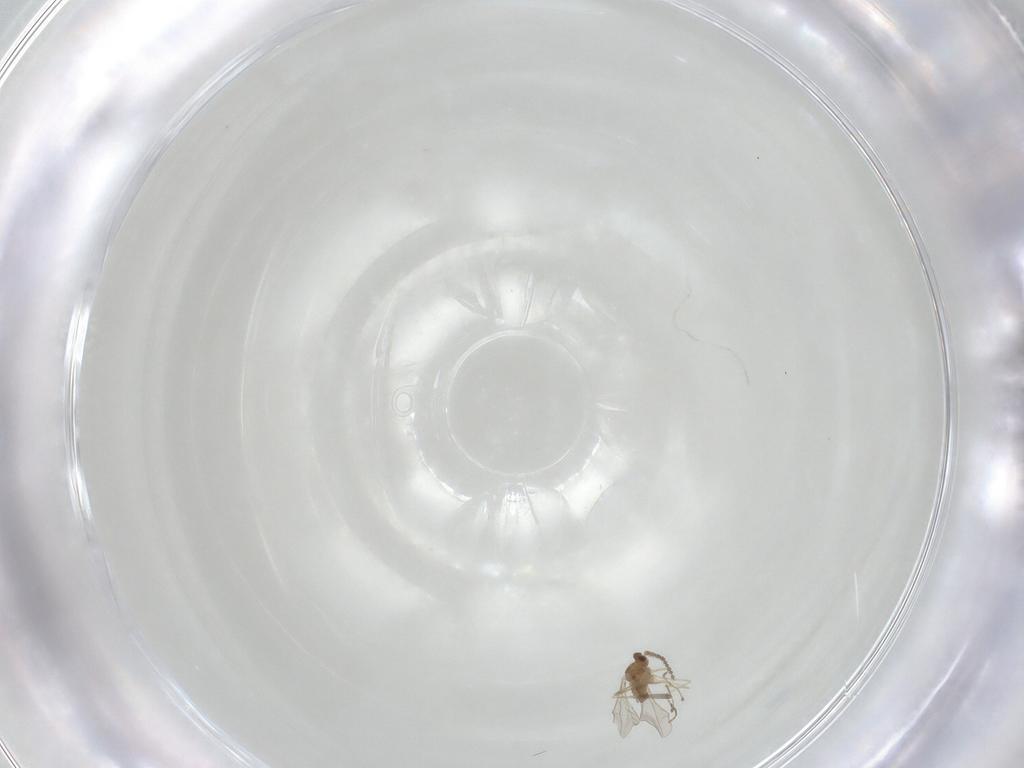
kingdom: Animalia
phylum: Arthropoda
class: Insecta
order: Diptera
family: Cecidomyiidae
